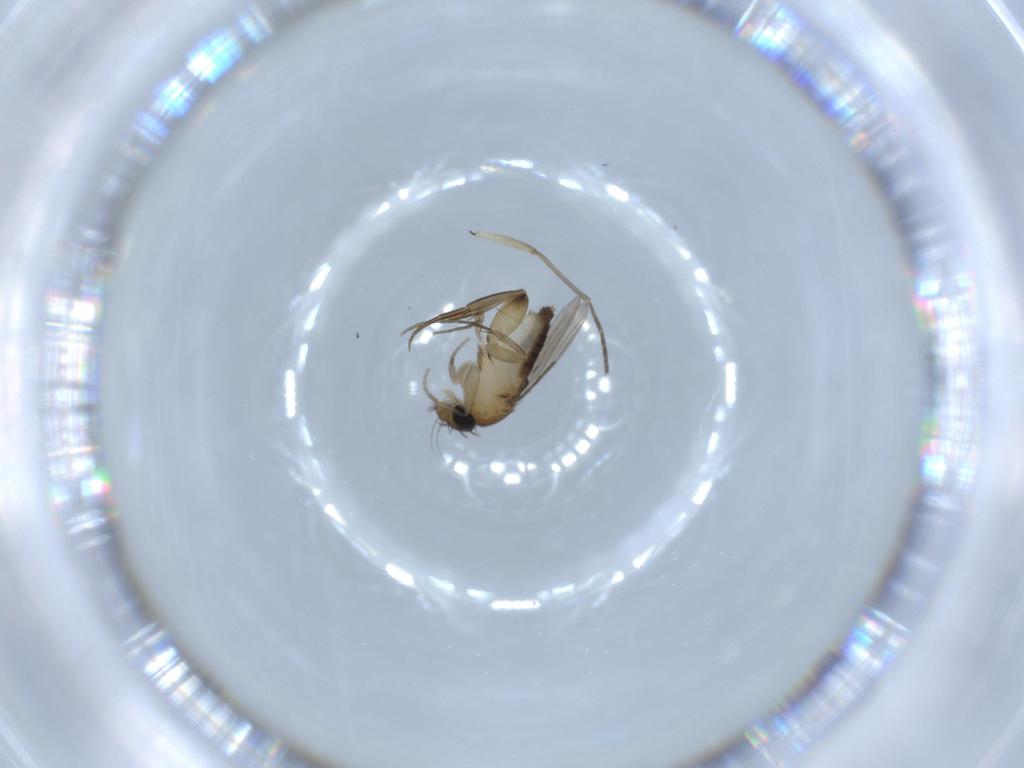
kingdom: Animalia
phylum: Arthropoda
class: Insecta
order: Diptera
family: Phoridae
